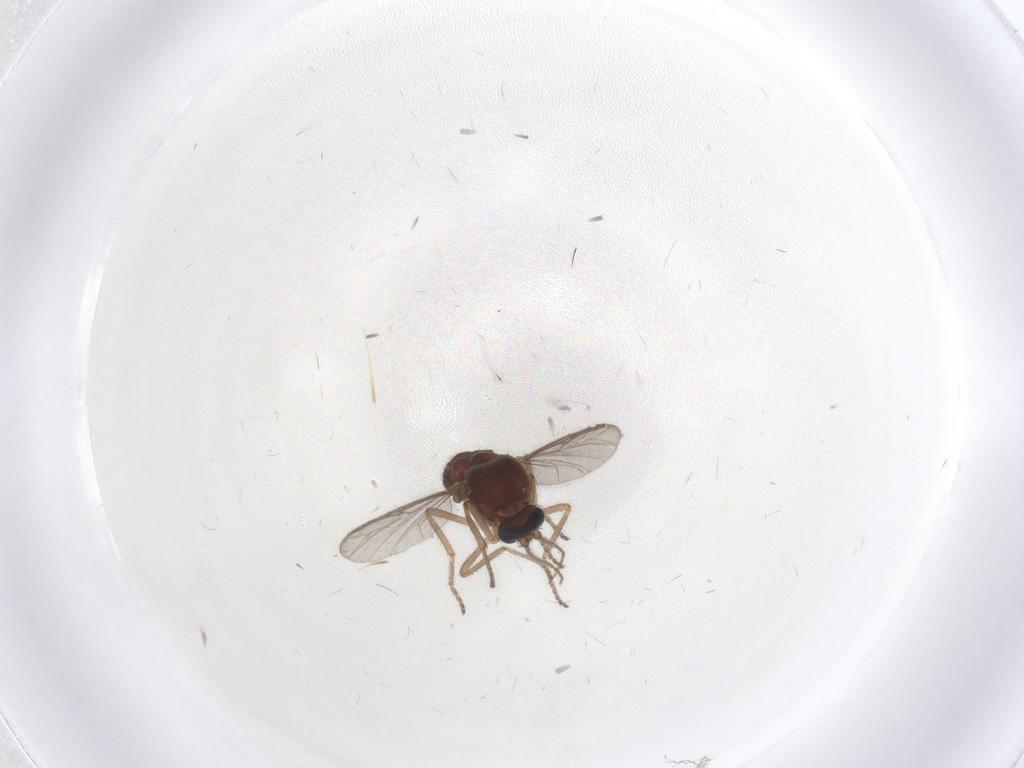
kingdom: Animalia
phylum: Arthropoda
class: Insecta
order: Diptera
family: Ceratopogonidae
